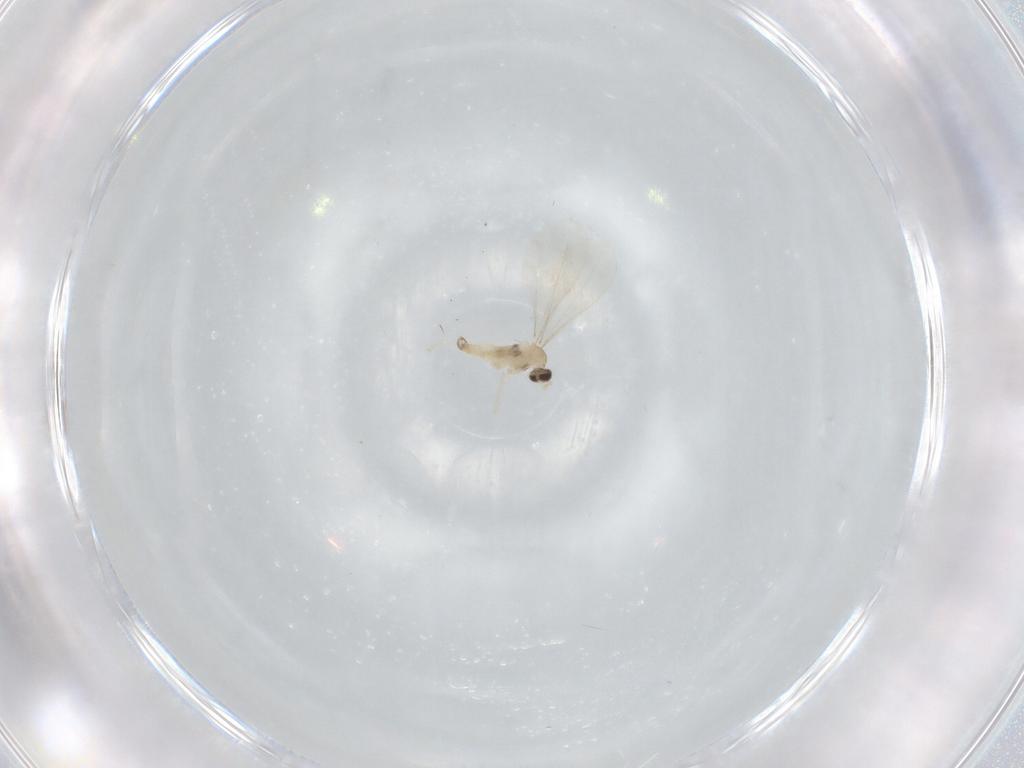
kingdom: Animalia
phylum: Arthropoda
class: Insecta
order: Diptera
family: Cecidomyiidae
